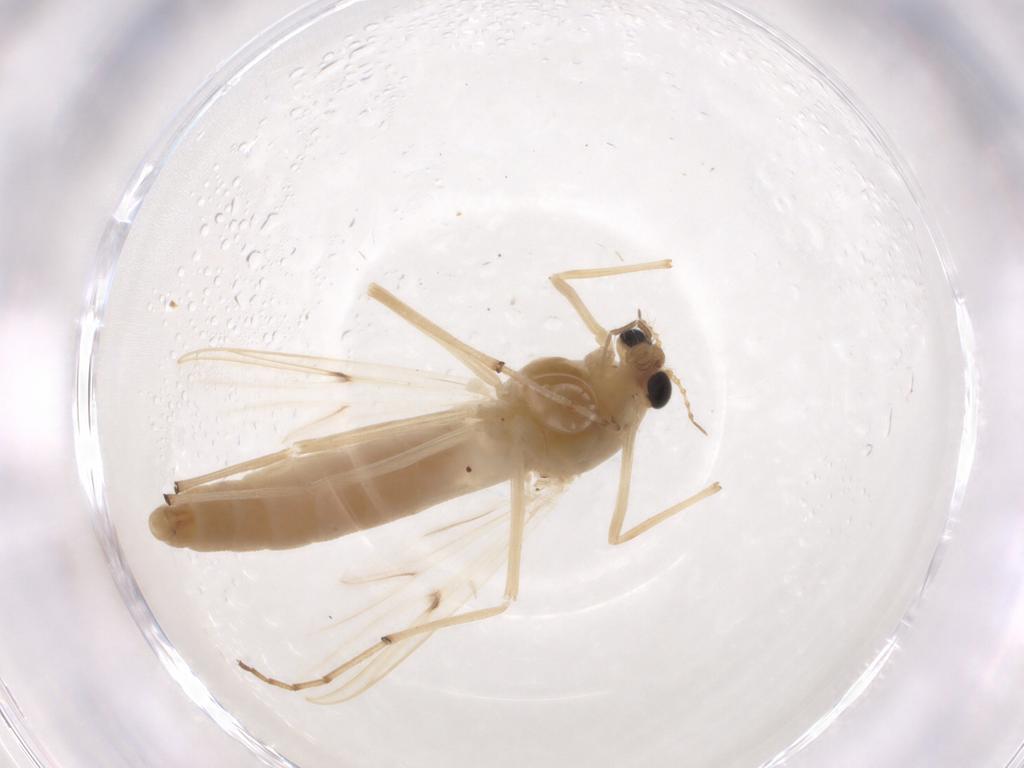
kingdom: Animalia
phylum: Arthropoda
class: Insecta
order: Diptera
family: Chironomidae
